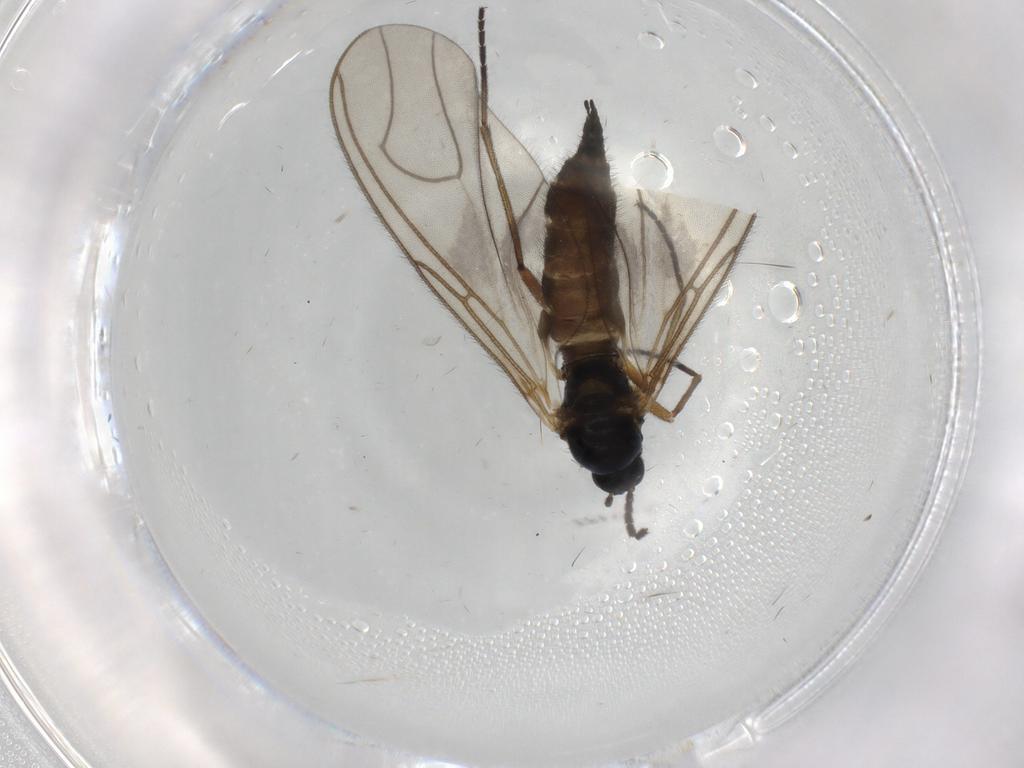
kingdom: Animalia
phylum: Arthropoda
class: Insecta
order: Diptera
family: Sciaridae
